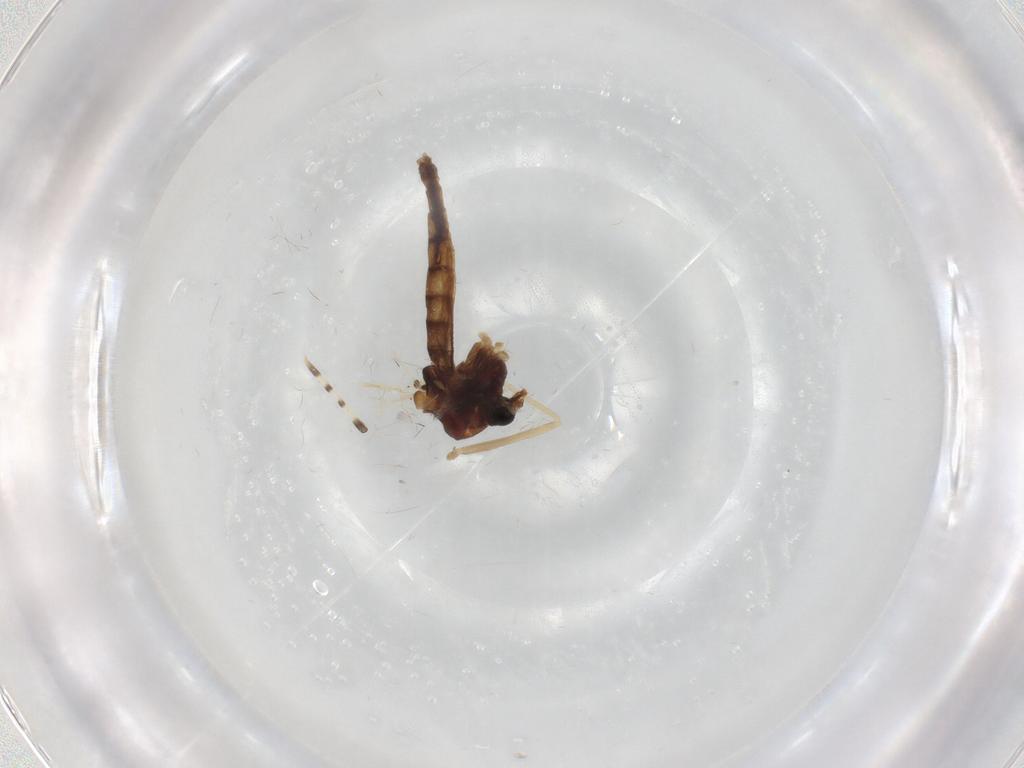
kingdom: Animalia
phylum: Arthropoda
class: Insecta
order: Diptera
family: Chironomidae
